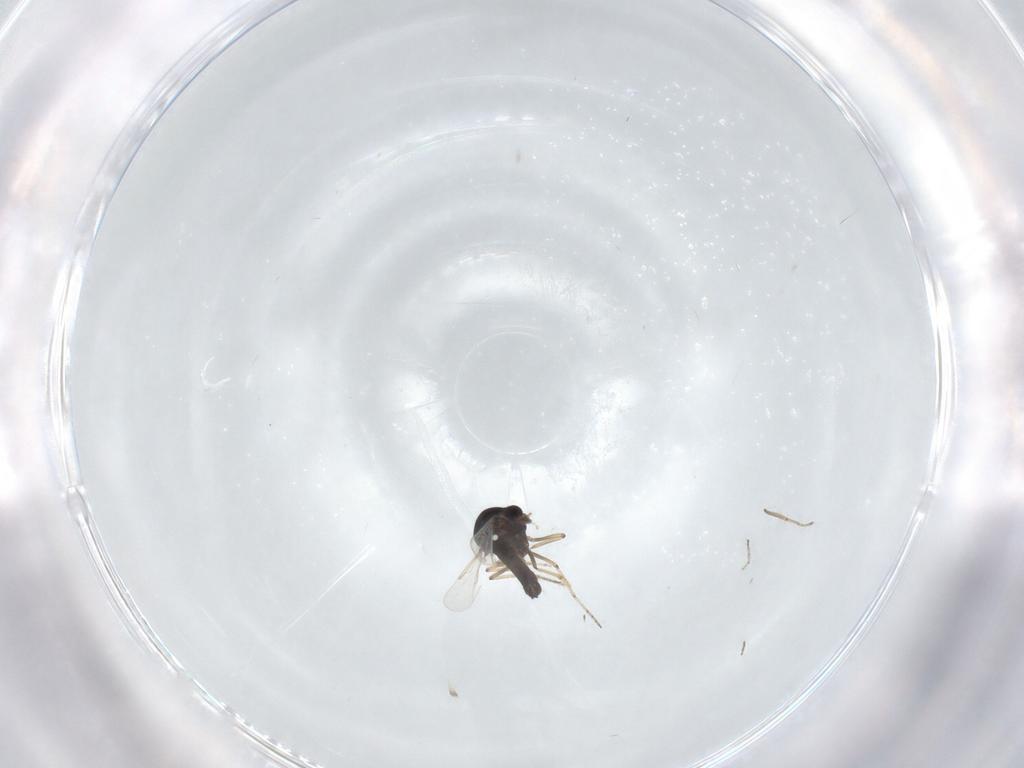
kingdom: Animalia
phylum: Arthropoda
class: Insecta
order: Diptera
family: Ceratopogonidae
